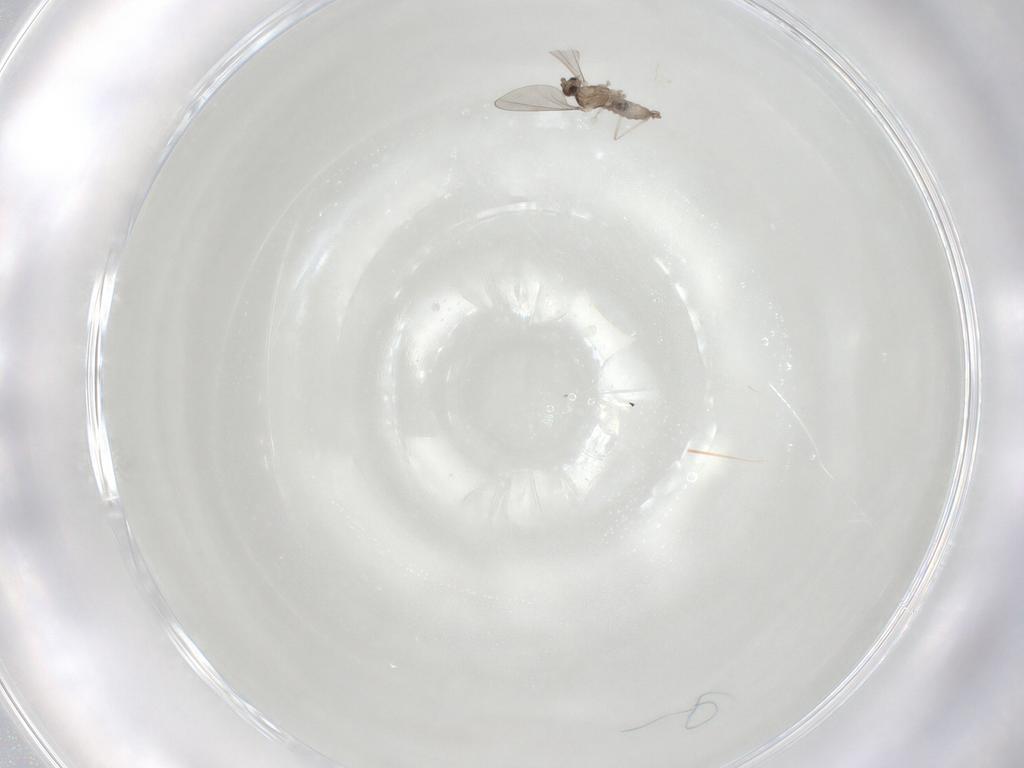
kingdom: Animalia
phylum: Arthropoda
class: Insecta
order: Diptera
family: Cecidomyiidae
